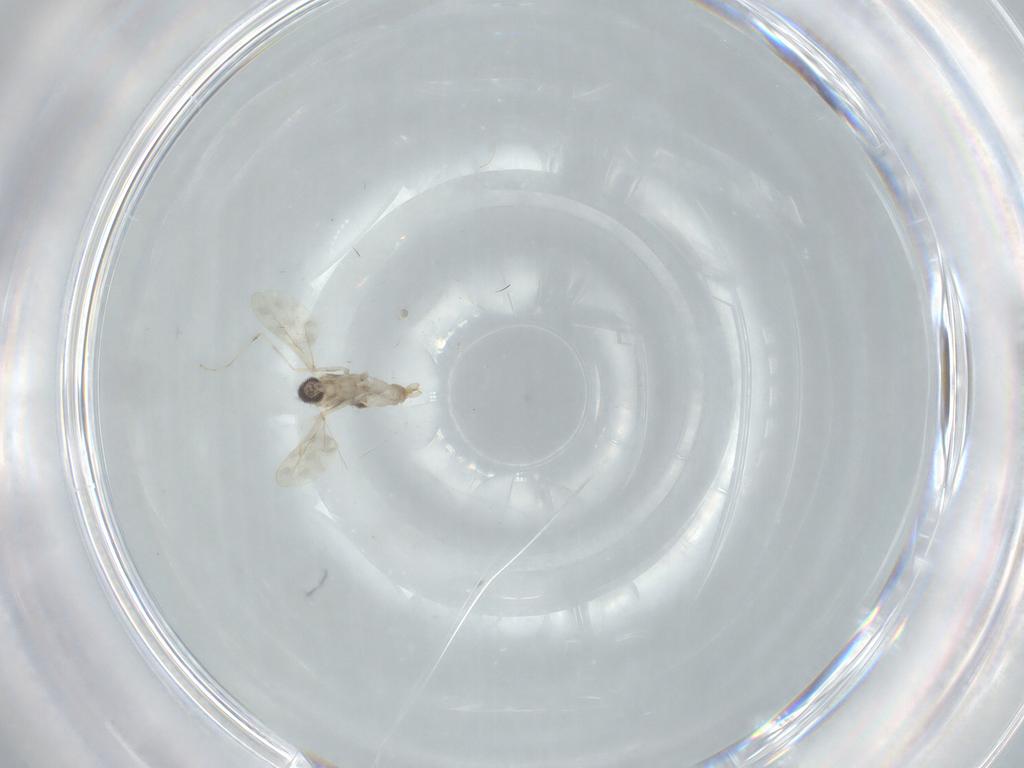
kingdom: Animalia
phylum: Arthropoda
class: Insecta
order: Diptera
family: Cecidomyiidae
